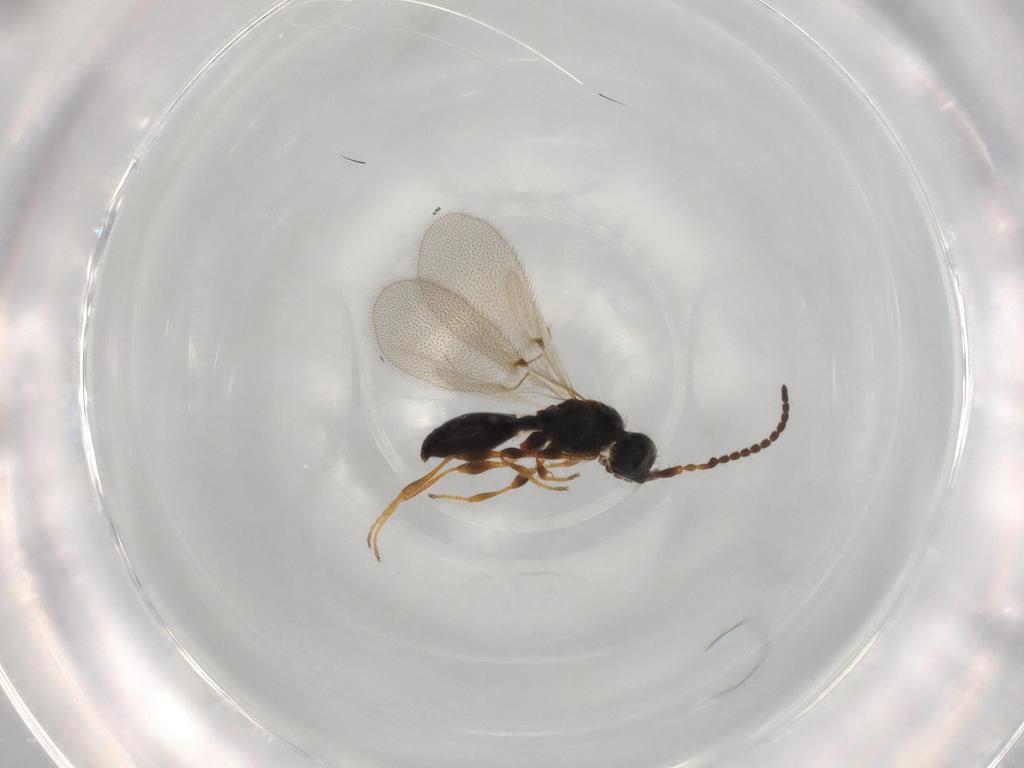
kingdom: Animalia
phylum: Arthropoda
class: Insecta
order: Hymenoptera
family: Diapriidae
